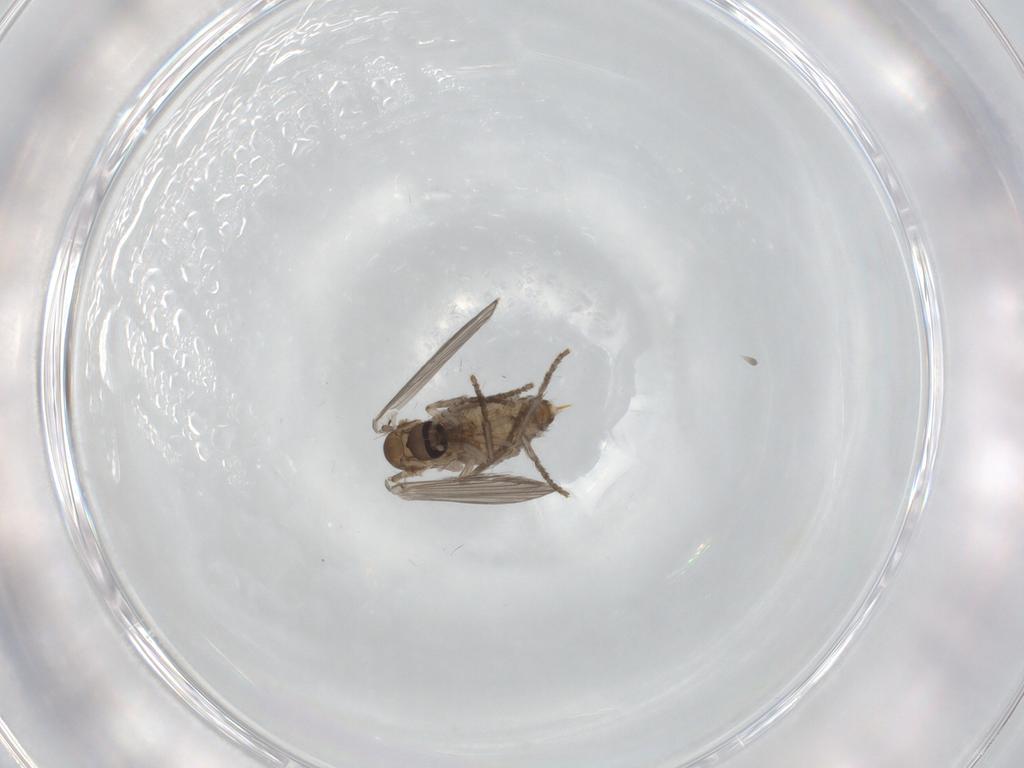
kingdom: Animalia
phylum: Arthropoda
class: Insecta
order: Diptera
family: Psychodidae
